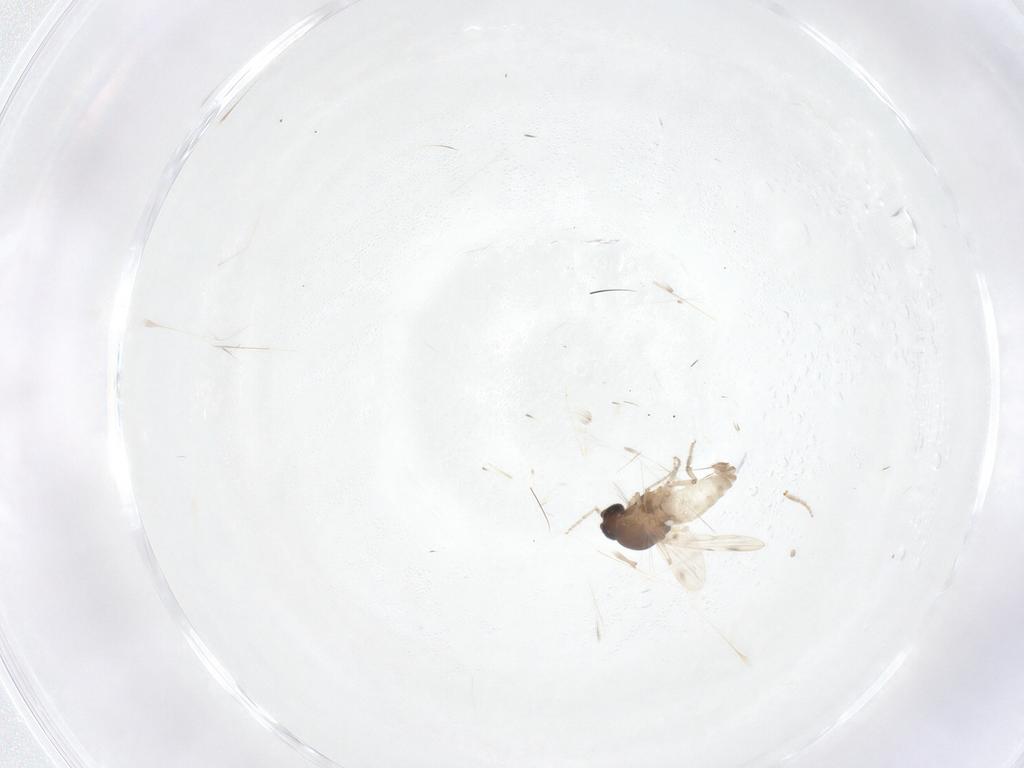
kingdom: Animalia
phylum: Arthropoda
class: Insecta
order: Diptera
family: Ceratopogonidae
